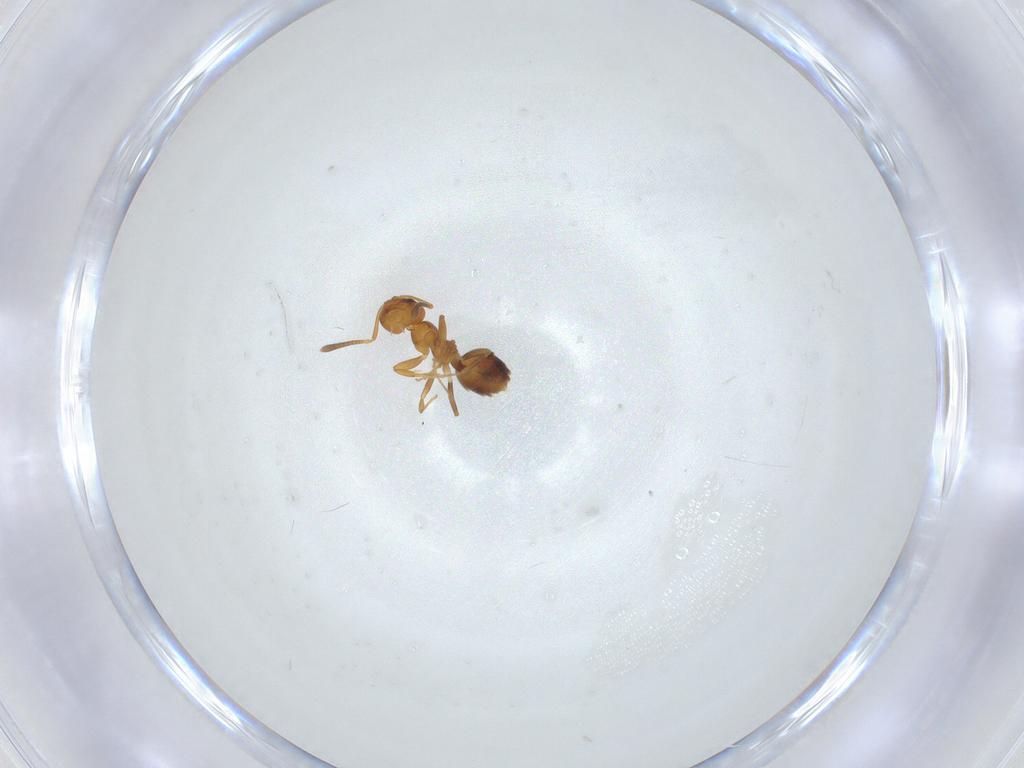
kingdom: Animalia
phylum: Arthropoda
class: Insecta
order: Hymenoptera
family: Formicidae
